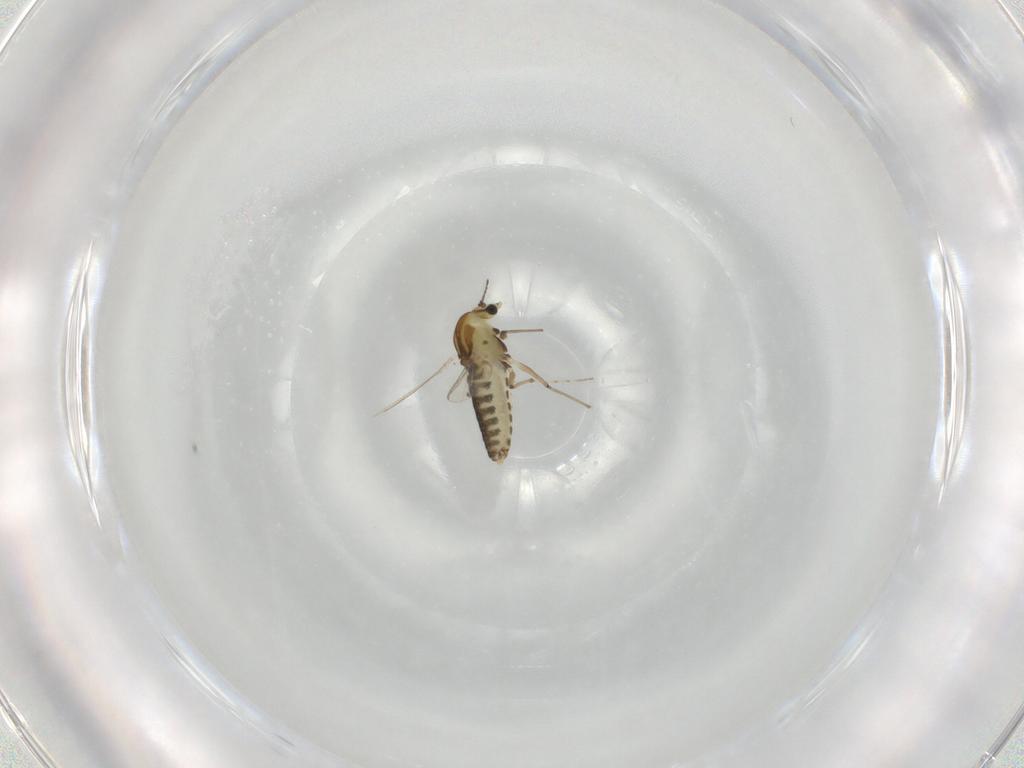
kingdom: Animalia
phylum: Arthropoda
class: Insecta
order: Diptera
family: Chironomidae
